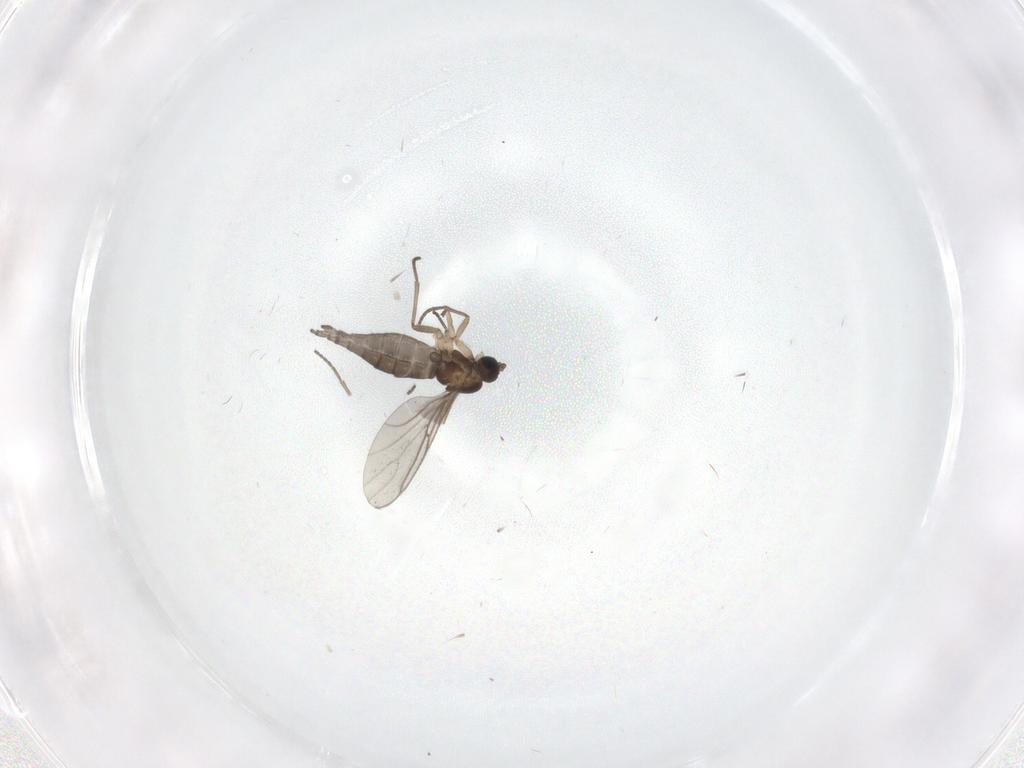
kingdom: Animalia
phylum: Arthropoda
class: Insecta
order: Diptera
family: Sciaridae
